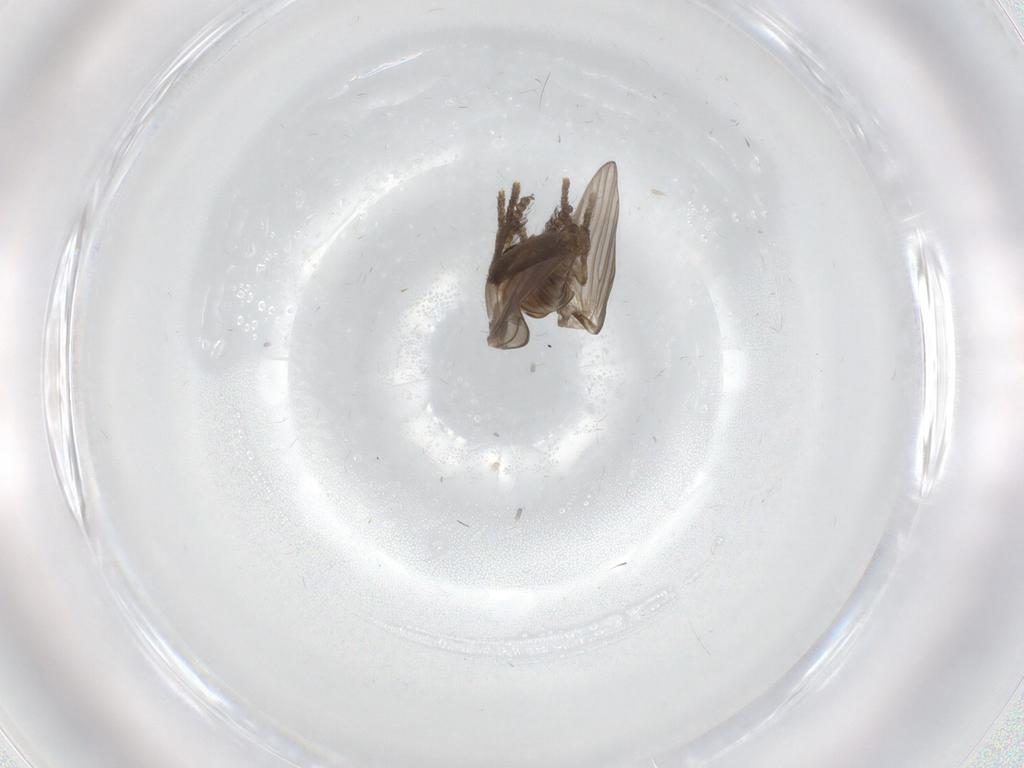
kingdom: Animalia
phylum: Arthropoda
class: Insecta
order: Diptera
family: Psychodidae
